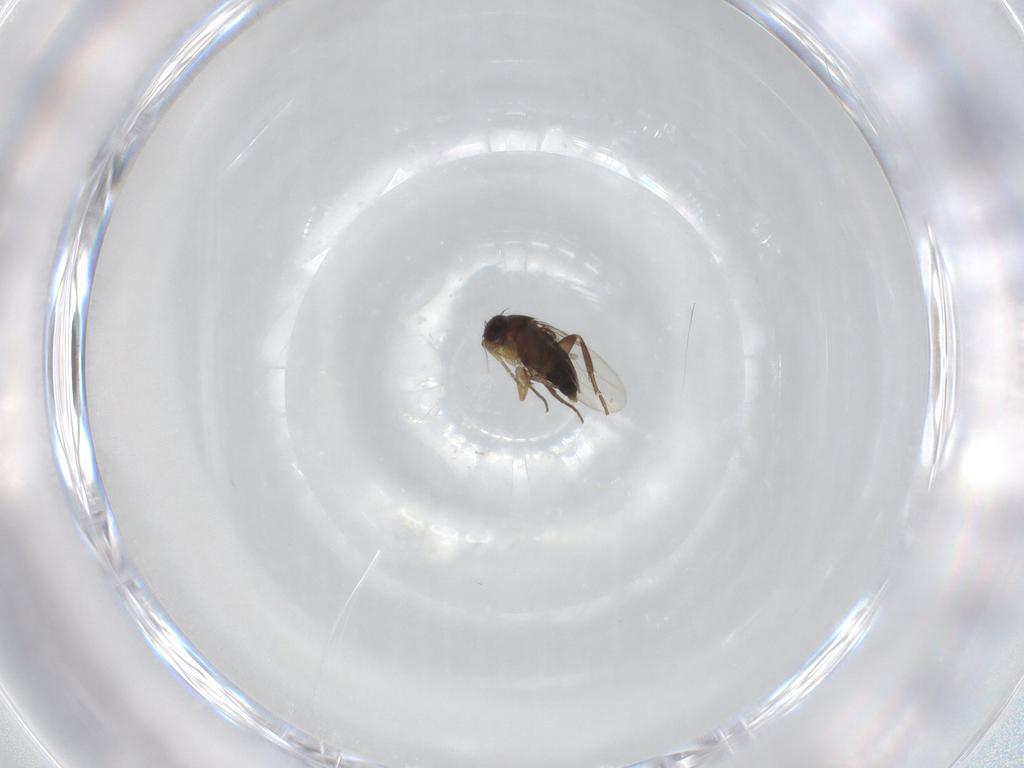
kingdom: Animalia
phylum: Arthropoda
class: Insecta
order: Diptera
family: Phoridae
